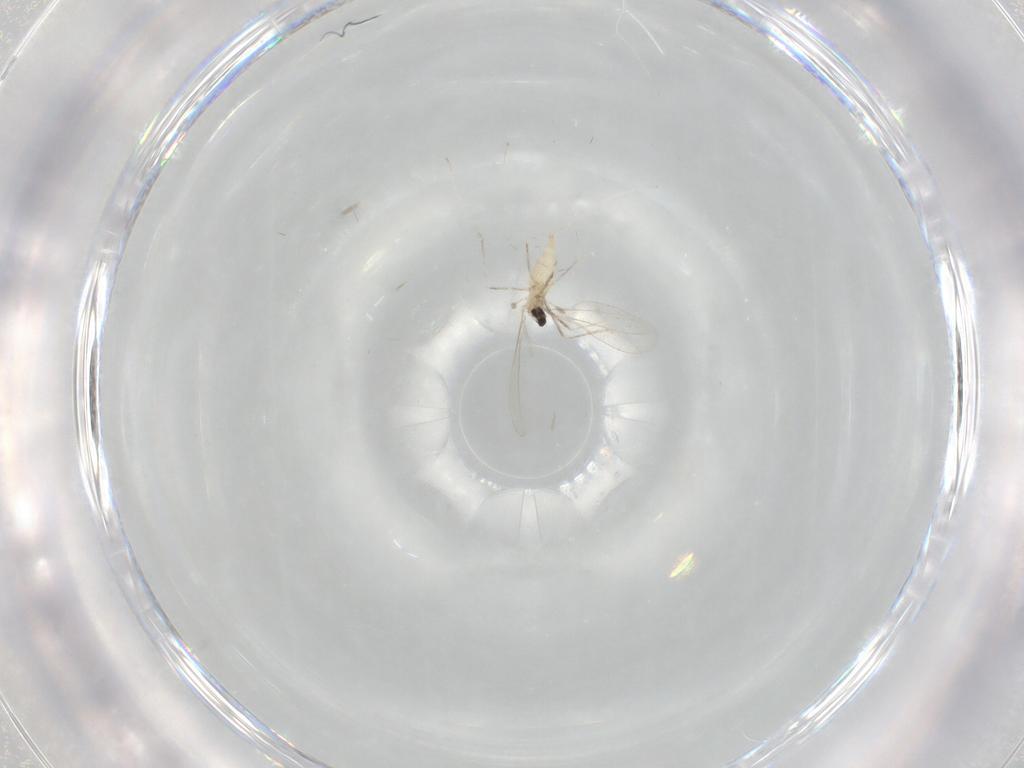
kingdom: Animalia
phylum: Arthropoda
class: Insecta
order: Diptera
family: Cecidomyiidae
